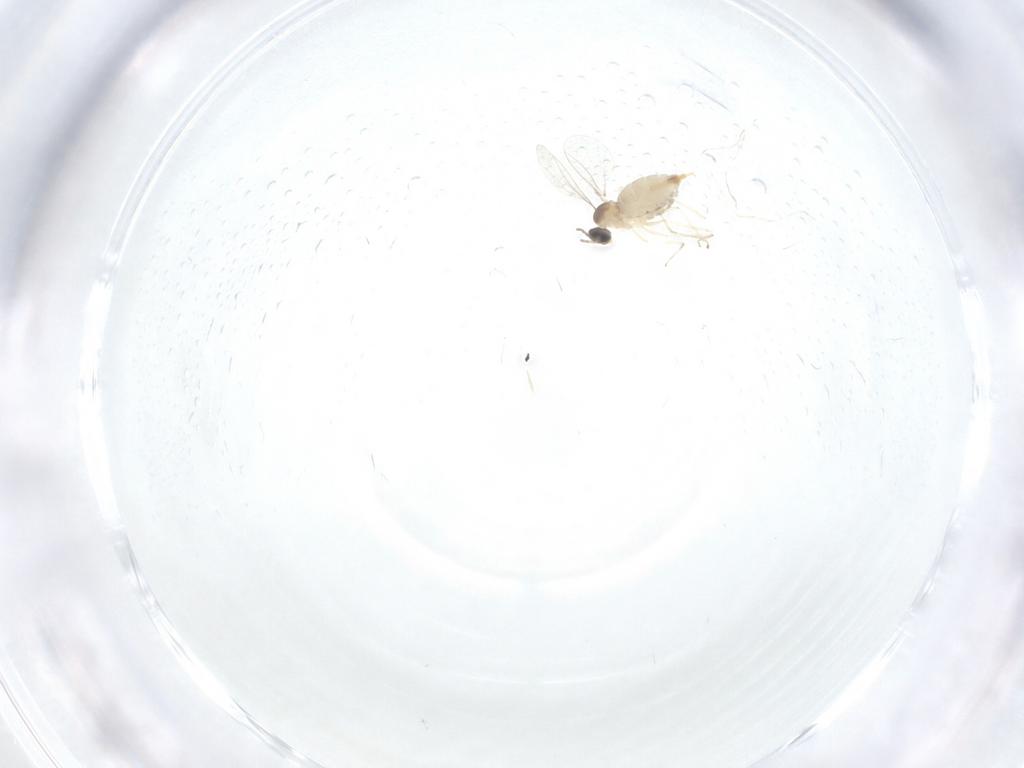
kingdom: Animalia
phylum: Arthropoda
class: Insecta
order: Diptera
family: Cecidomyiidae
